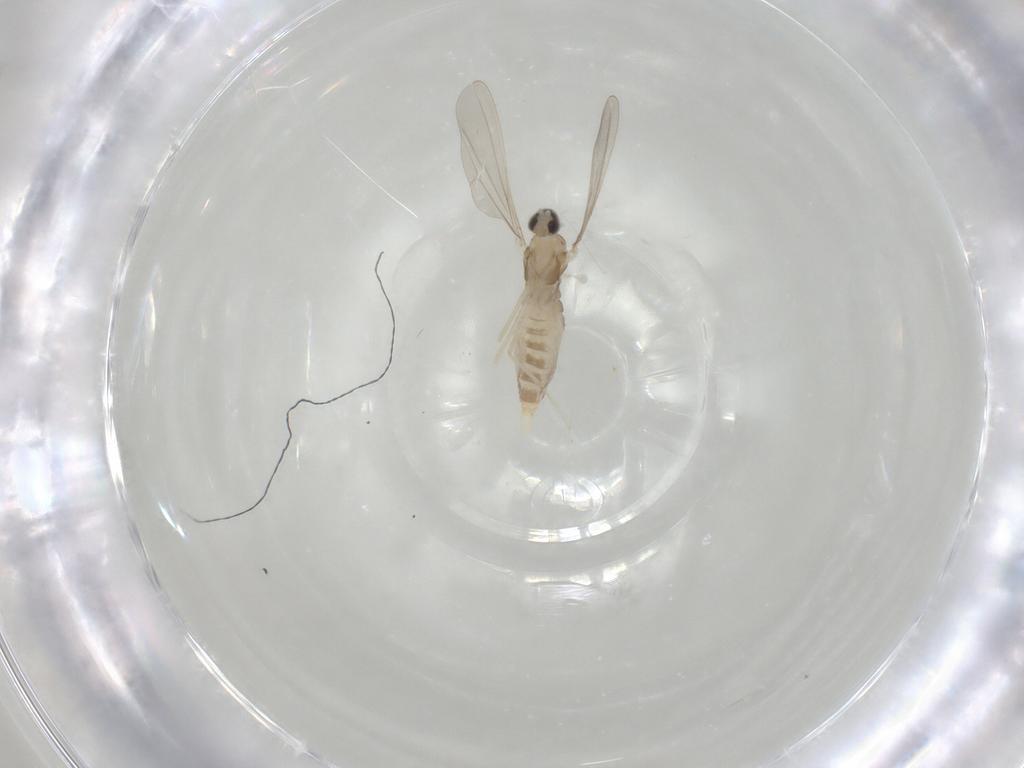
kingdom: Animalia
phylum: Arthropoda
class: Insecta
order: Diptera
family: Cecidomyiidae
